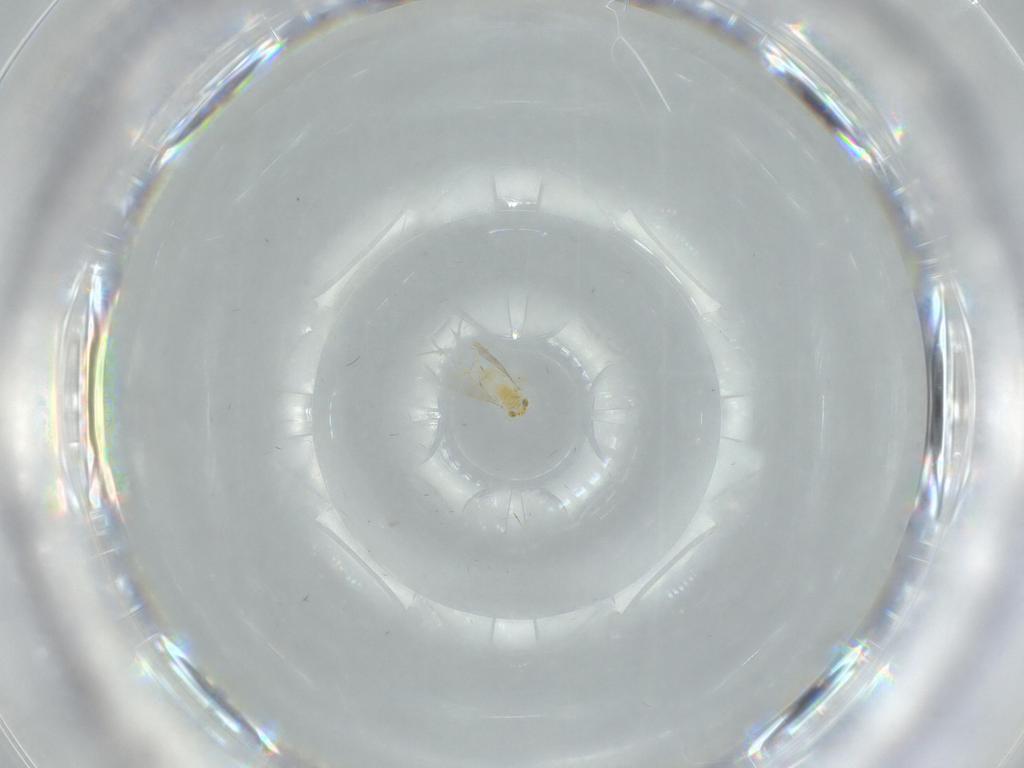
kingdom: Animalia
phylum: Arthropoda
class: Insecta
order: Hymenoptera
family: Aphelinidae
